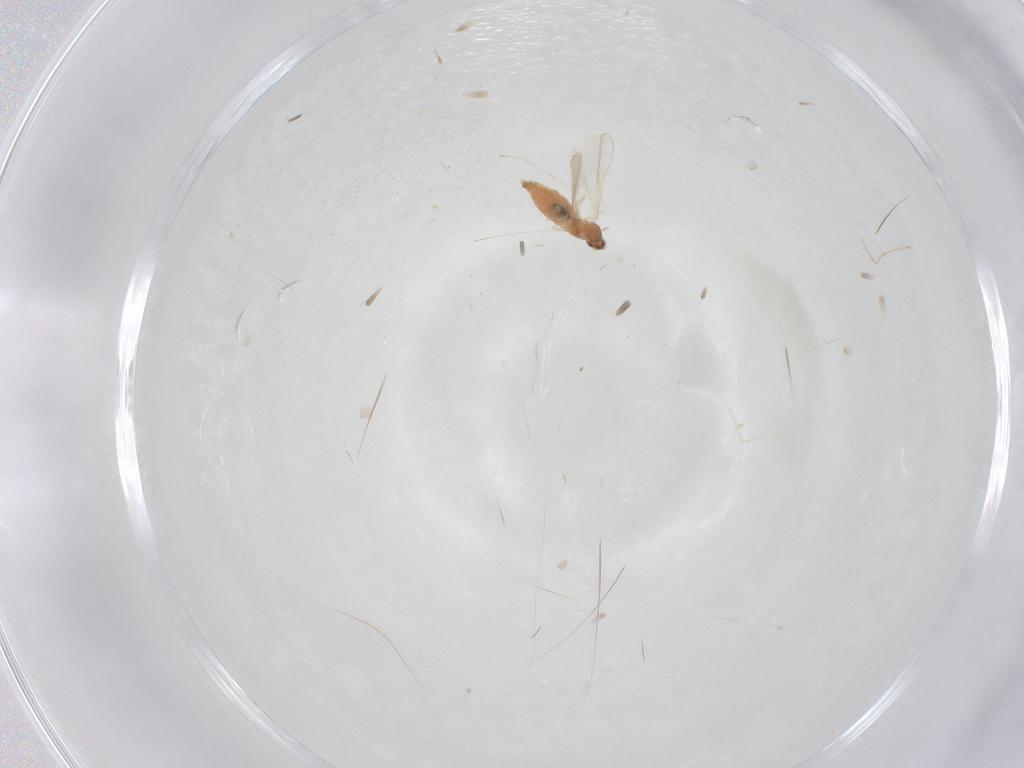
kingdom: Animalia
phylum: Arthropoda
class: Insecta
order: Diptera
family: Cecidomyiidae
